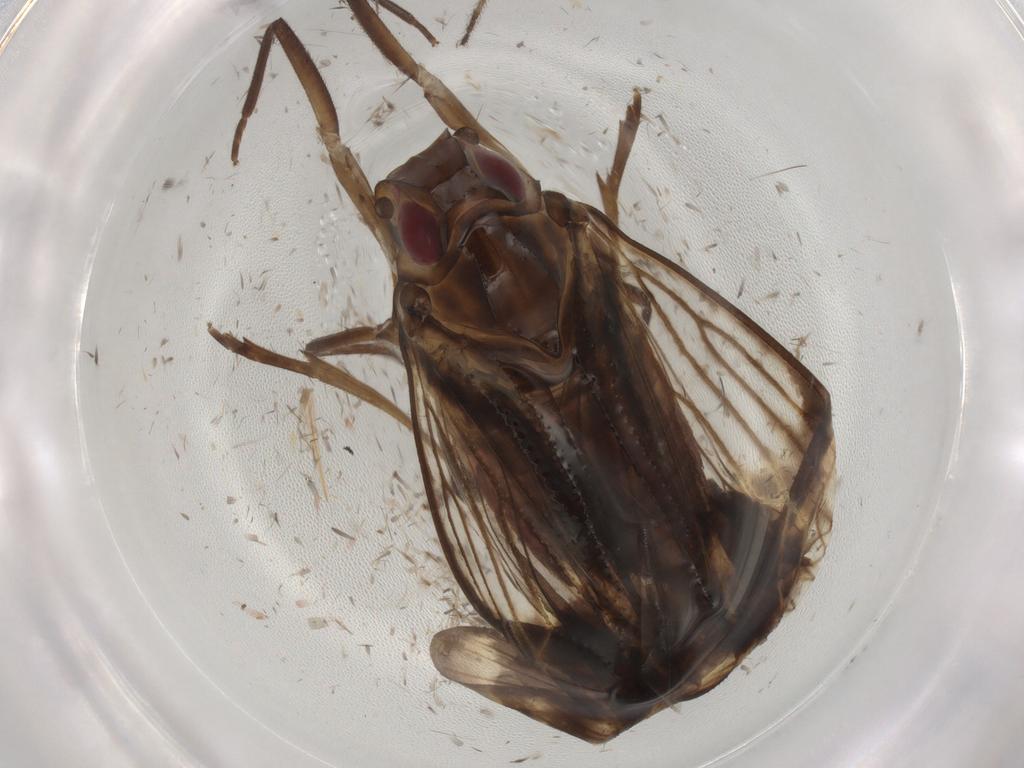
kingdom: Animalia
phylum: Arthropoda
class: Insecta
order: Hemiptera
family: Cixiidae
